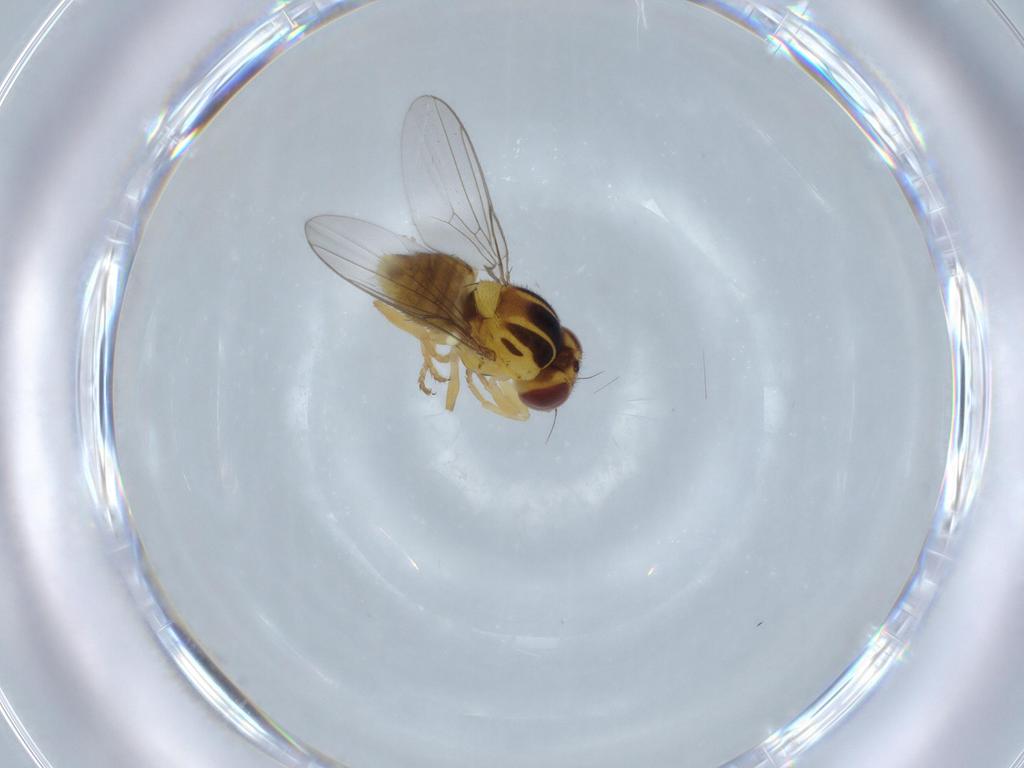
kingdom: Animalia
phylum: Arthropoda
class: Insecta
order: Diptera
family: Chloropidae
